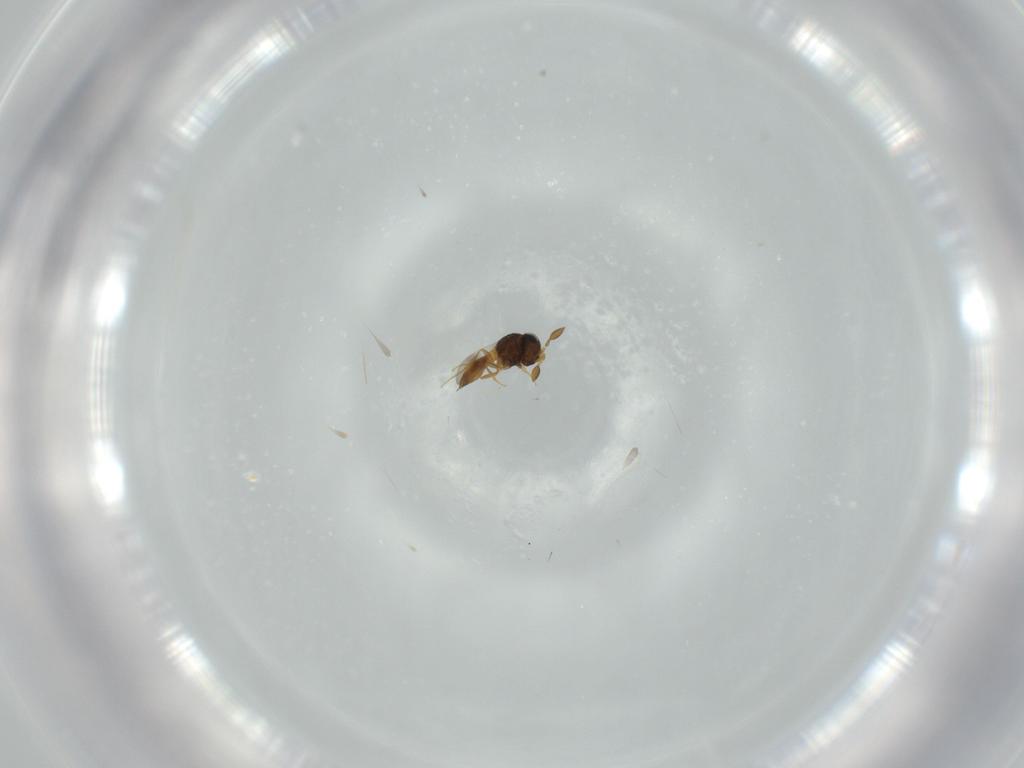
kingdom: Animalia
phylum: Arthropoda
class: Insecta
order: Hymenoptera
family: Scelionidae
